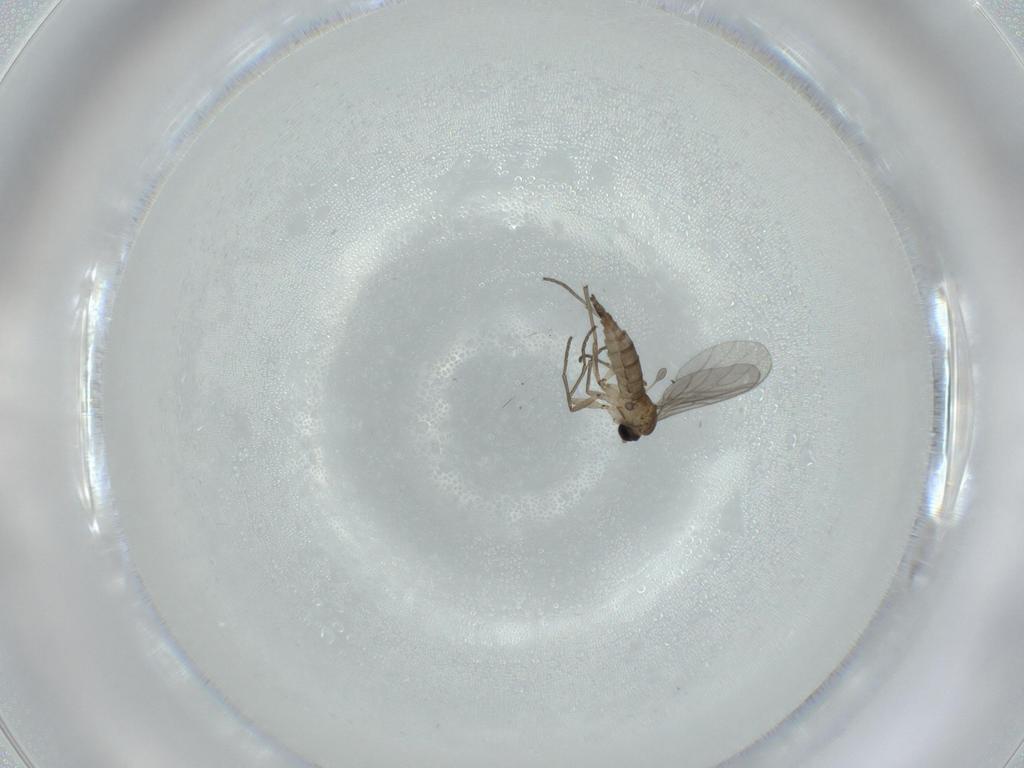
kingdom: Animalia
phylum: Arthropoda
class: Insecta
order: Diptera
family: Sciaridae
